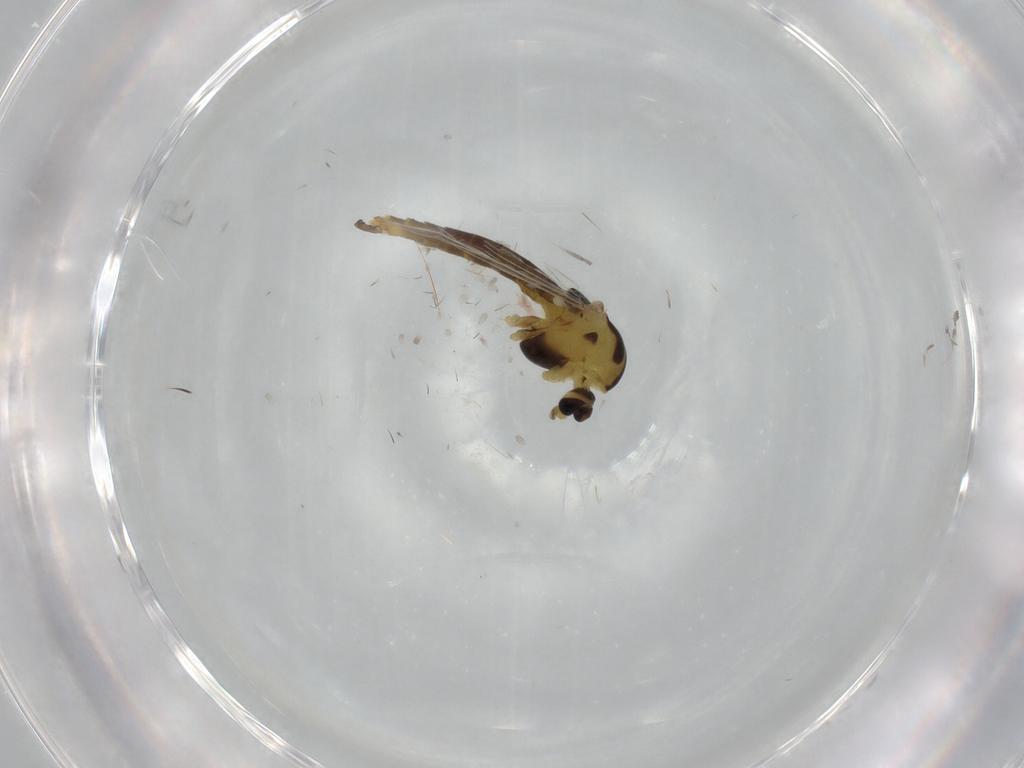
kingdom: Animalia
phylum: Arthropoda
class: Insecta
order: Diptera
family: Chironomidae
